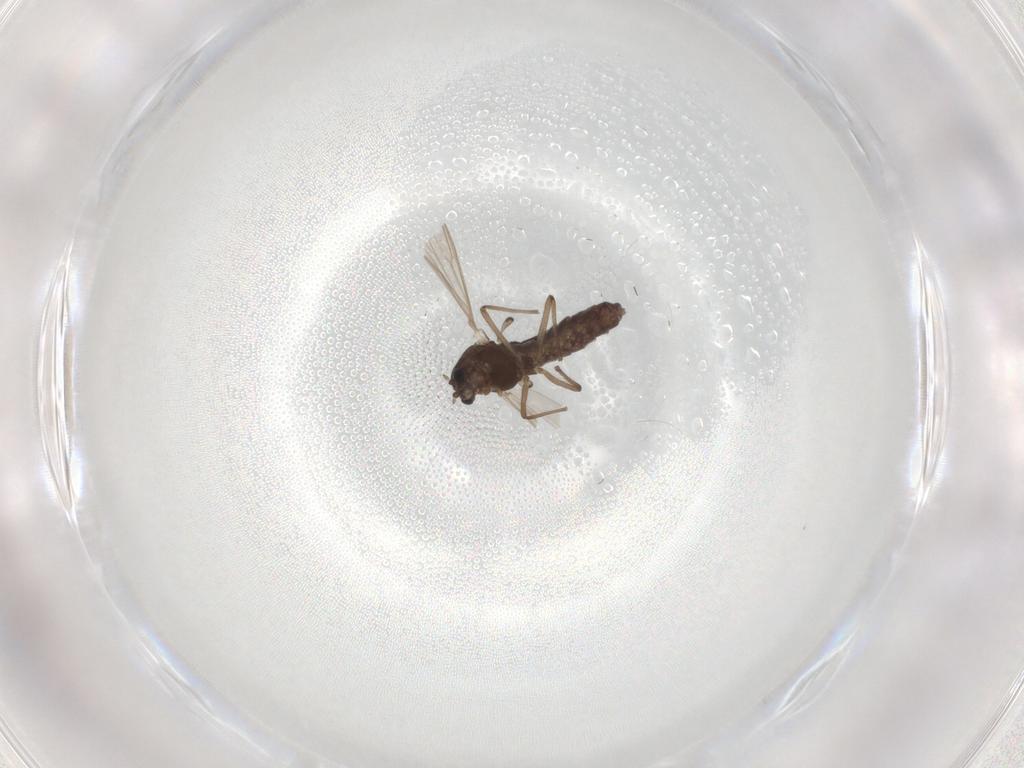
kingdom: Animalia
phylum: Arthropoda
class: Insecta
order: Diptera
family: Chironomidae
